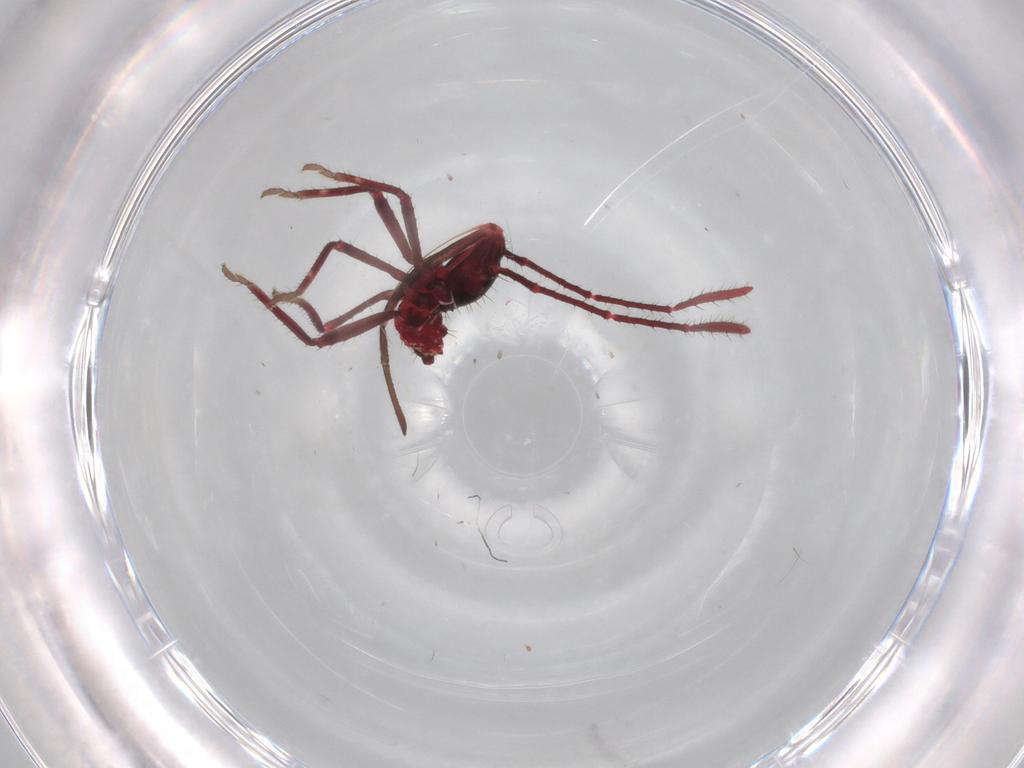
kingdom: Animalia
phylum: Arthropoda
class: Insecta
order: Hemiptera
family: Coreidae
